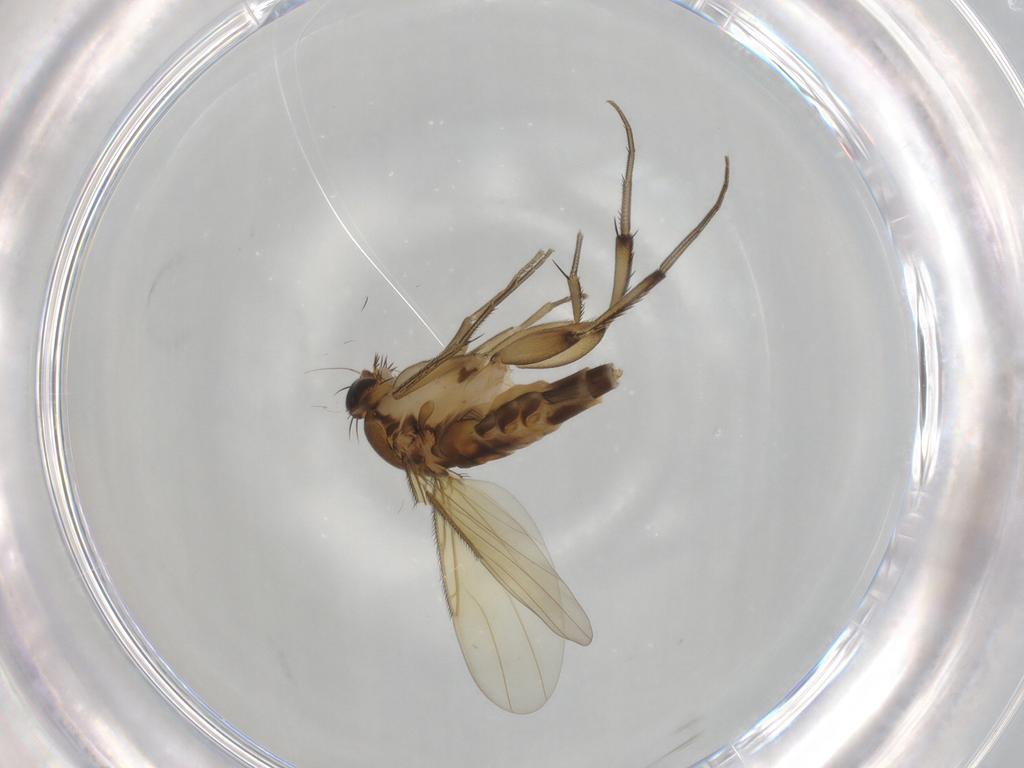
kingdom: Animalia
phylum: Arthropoda
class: Insecta
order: Diptera
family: Phoridae
